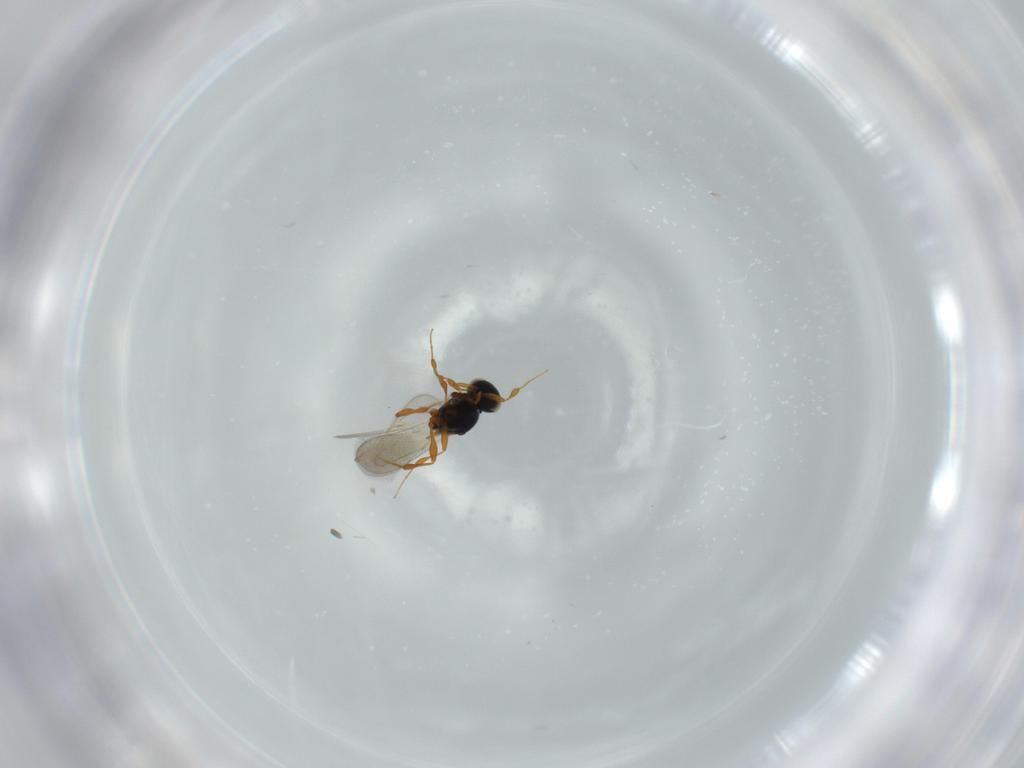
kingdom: Animalia
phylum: Arthropoda
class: Insecta
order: Hymenoptera
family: Platygastridae
